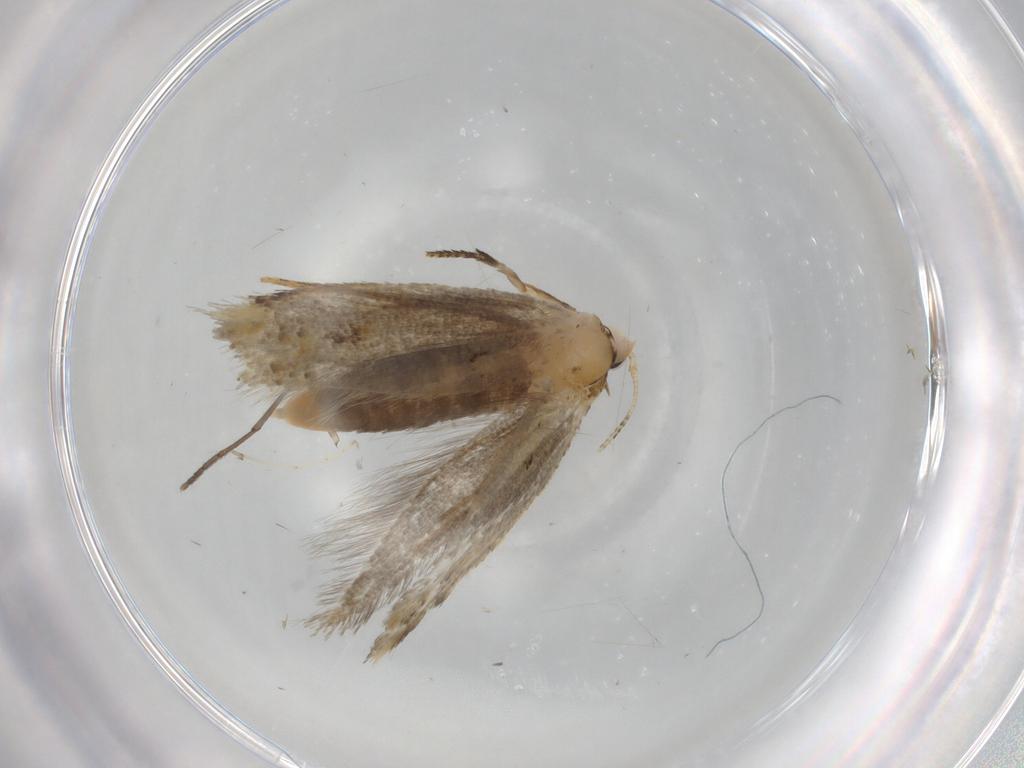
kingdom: Animalia
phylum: Arthropoda
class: Insecta
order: Lepidoptera
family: Tineidae
